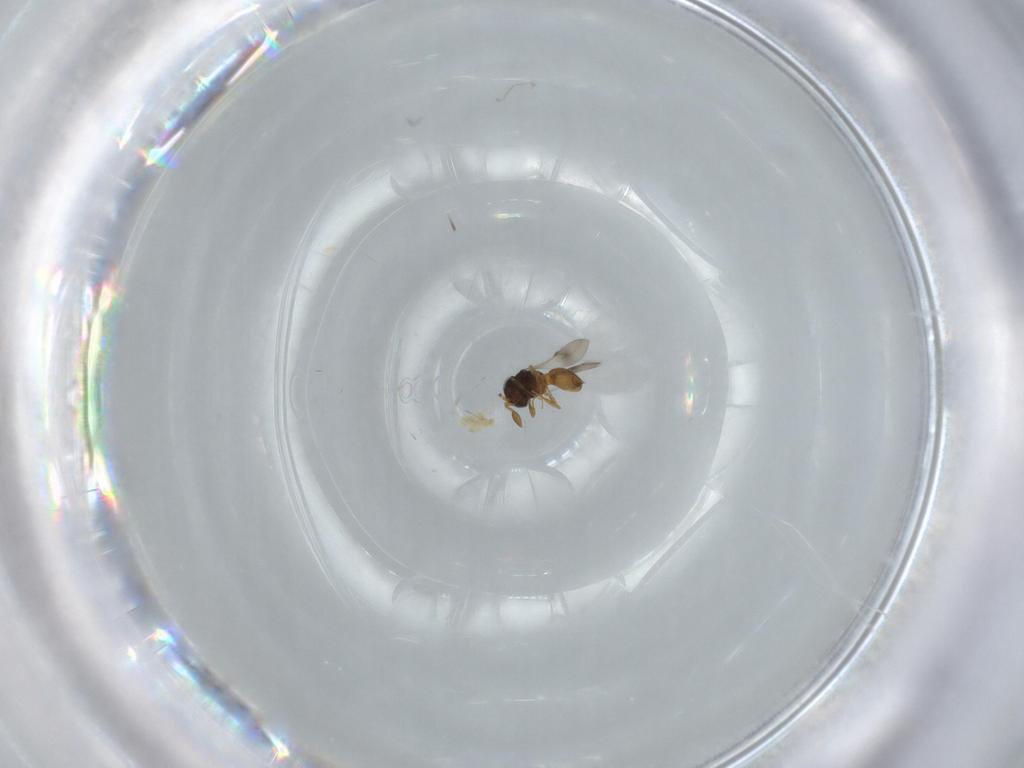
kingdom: Animalia
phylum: Arthropoda
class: Insecta
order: Hymenoptera
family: Scelionidae
